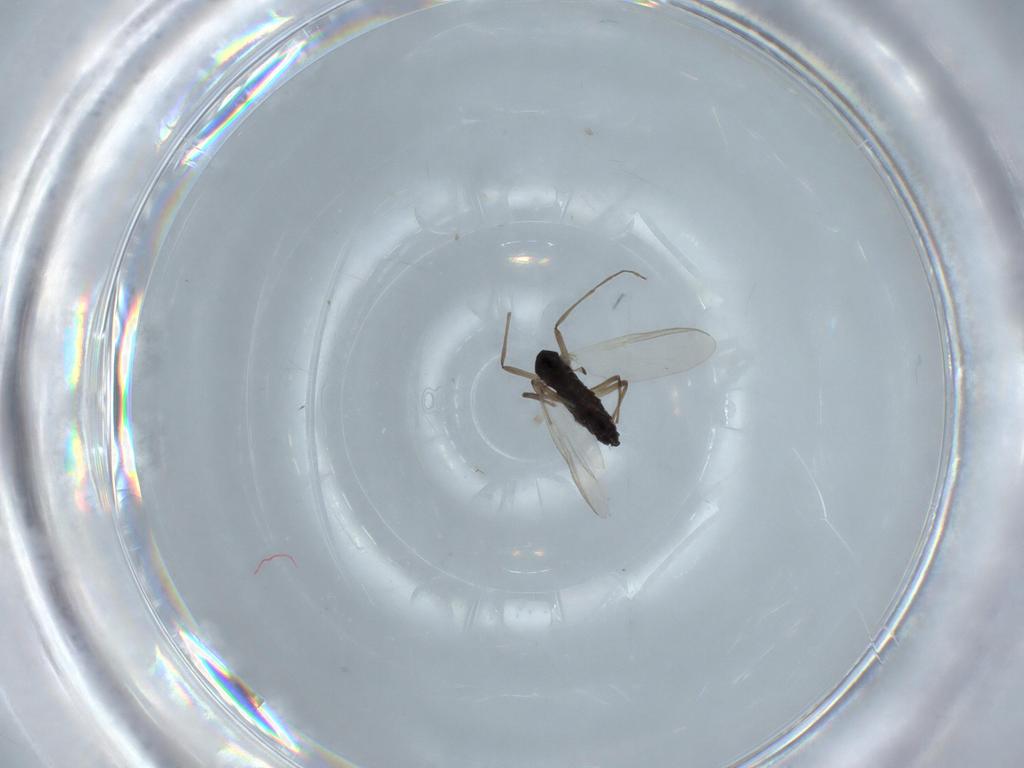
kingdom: Animalia
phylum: Arthropoda
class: Insecta
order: Diptera
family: Chironomidae
